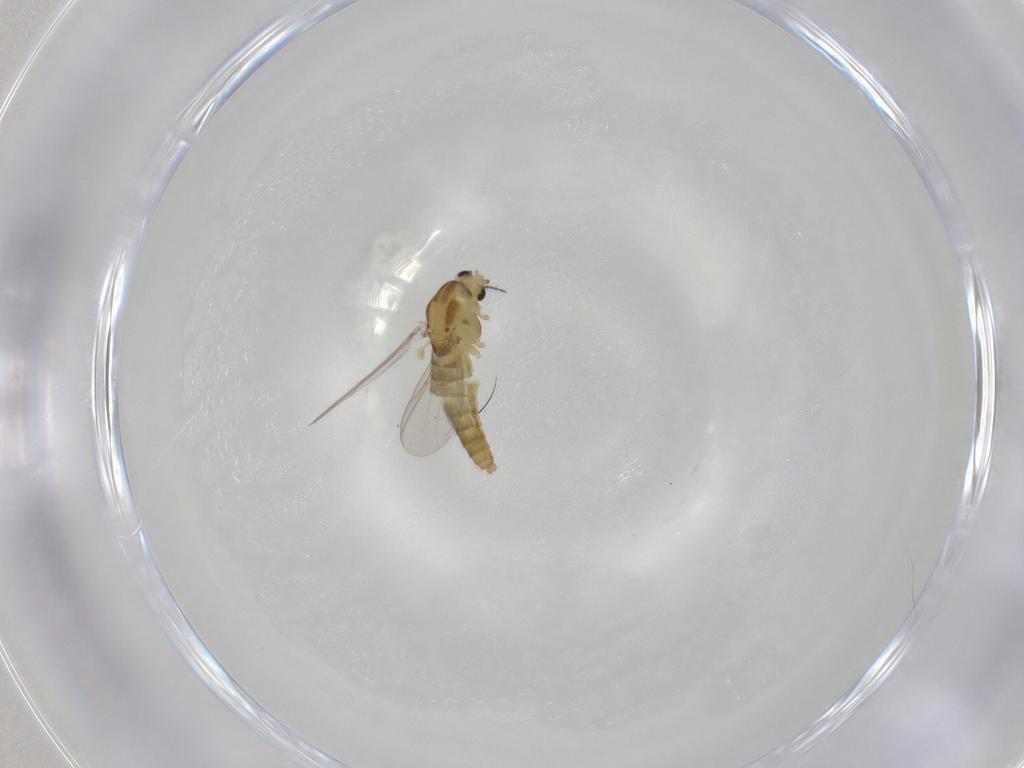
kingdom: Animalia
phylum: Arthropoda
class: Insecta
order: Diptera
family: Chironomidae
